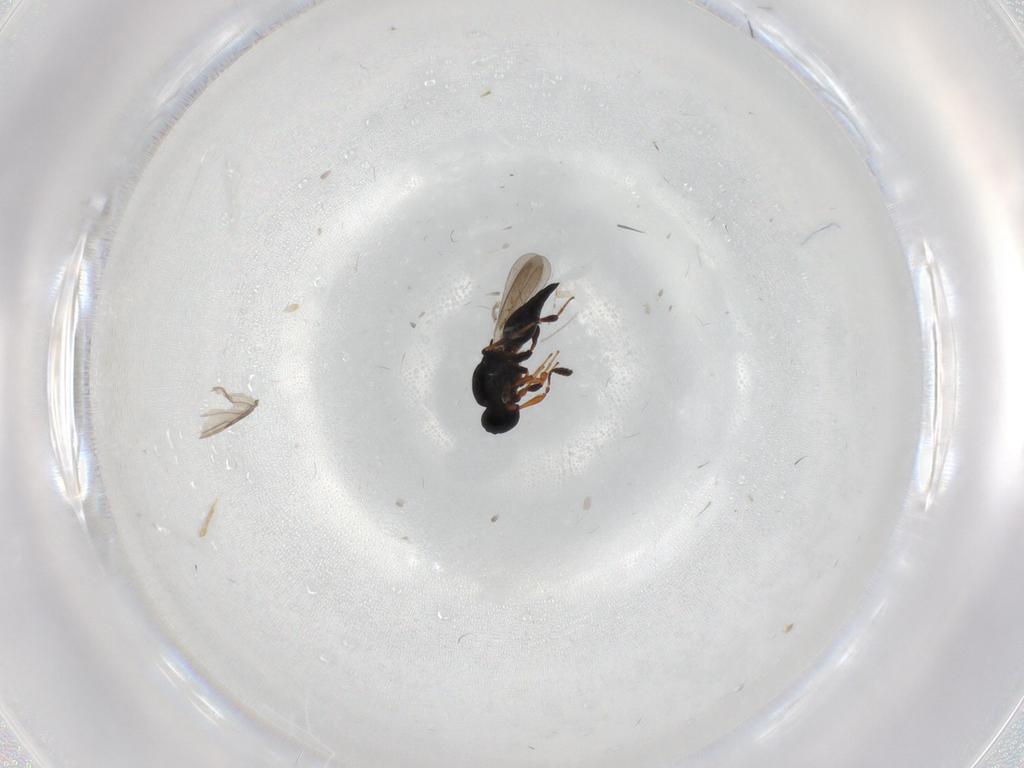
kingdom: Animalia
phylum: Arthropoda
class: Insecta
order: Hymenoptera
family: Platygastridae
